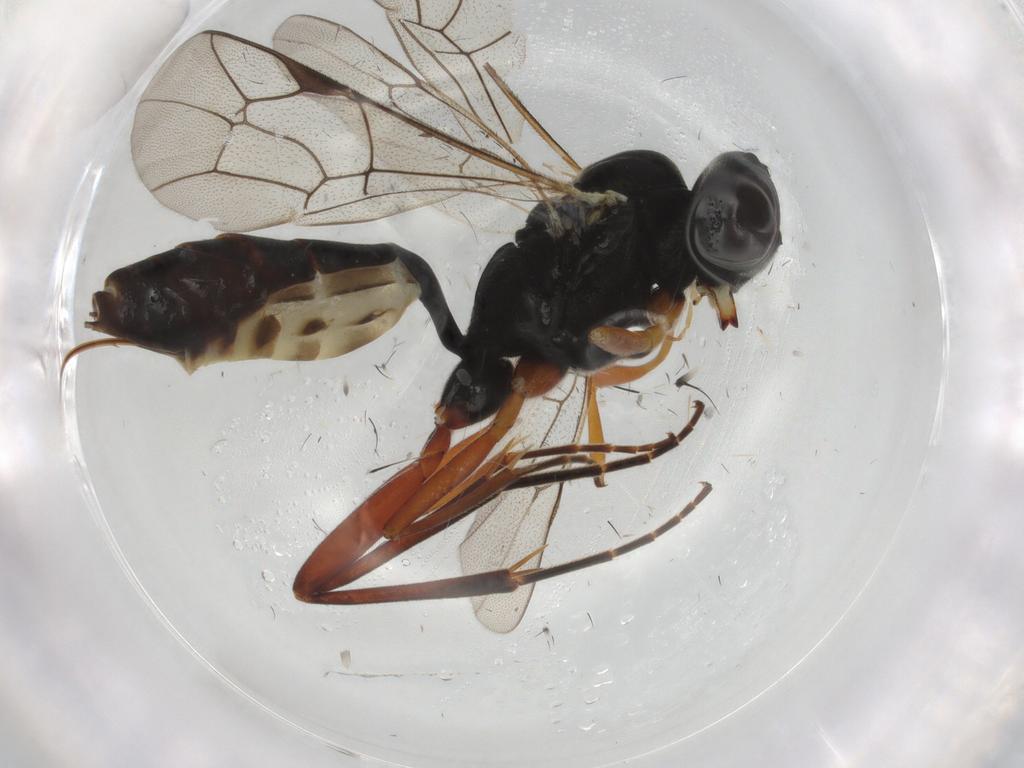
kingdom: Animalia
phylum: Arthropoda
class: Insecta
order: Hymenoptera
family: Ichneumonidae
